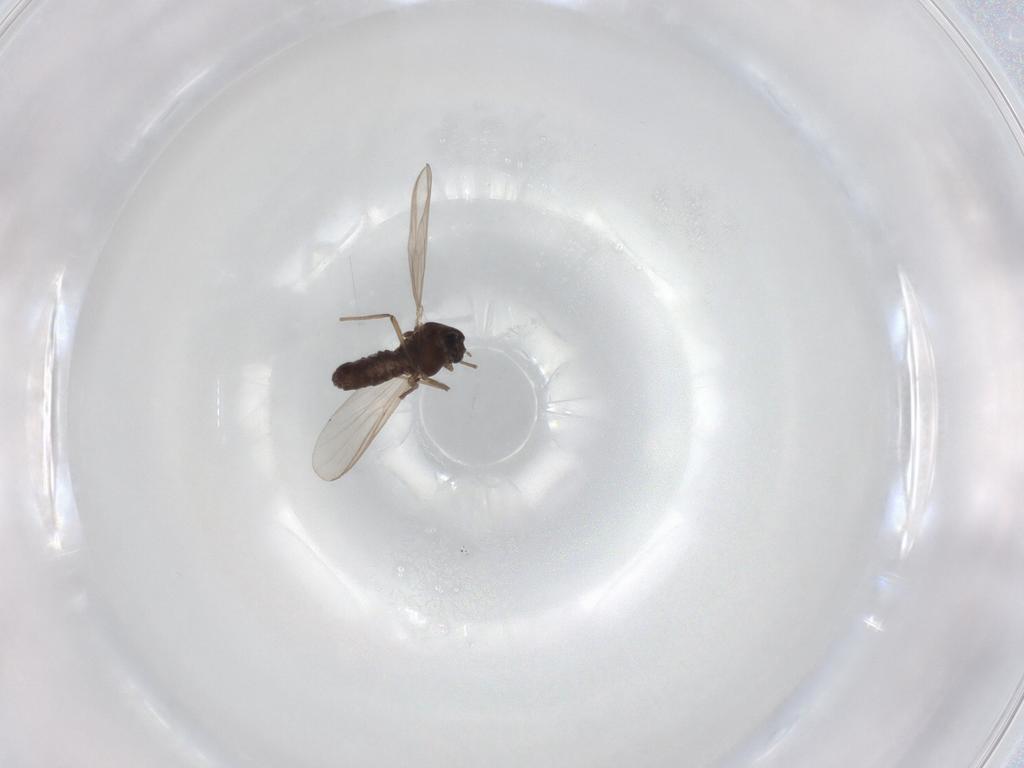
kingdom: Animalia
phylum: Arthropoda
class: Insecta
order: Diptera
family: Chironomidae
